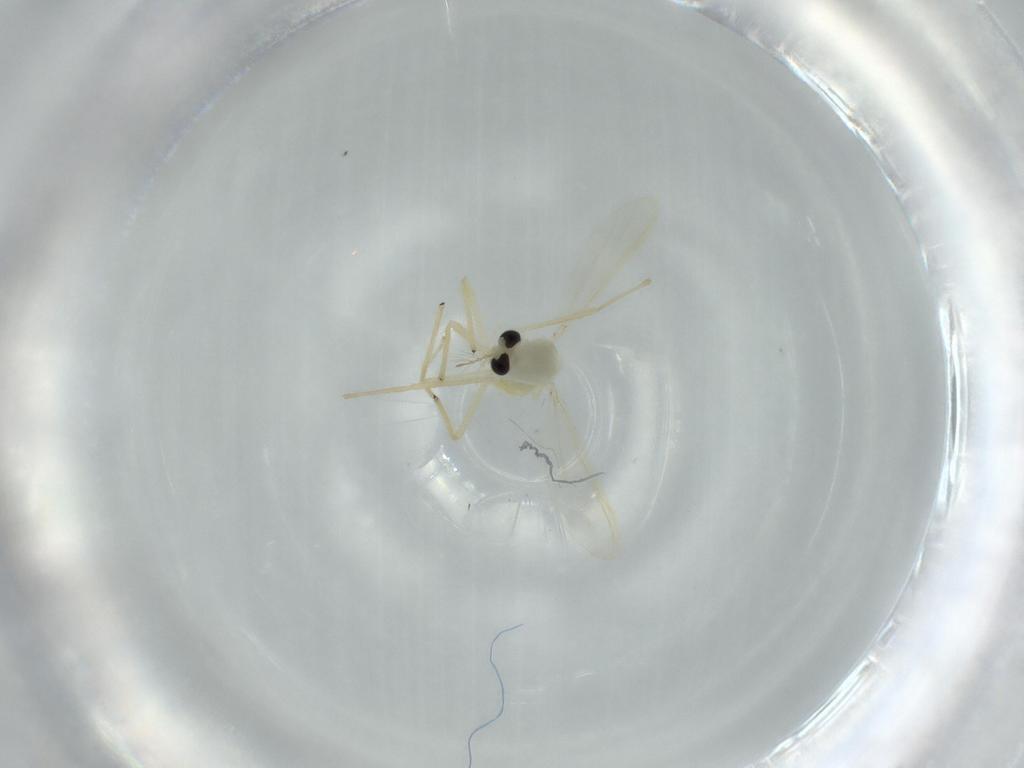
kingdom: Animalia
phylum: Arthropoda
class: Insecta
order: Diptera
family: Chironomidae
